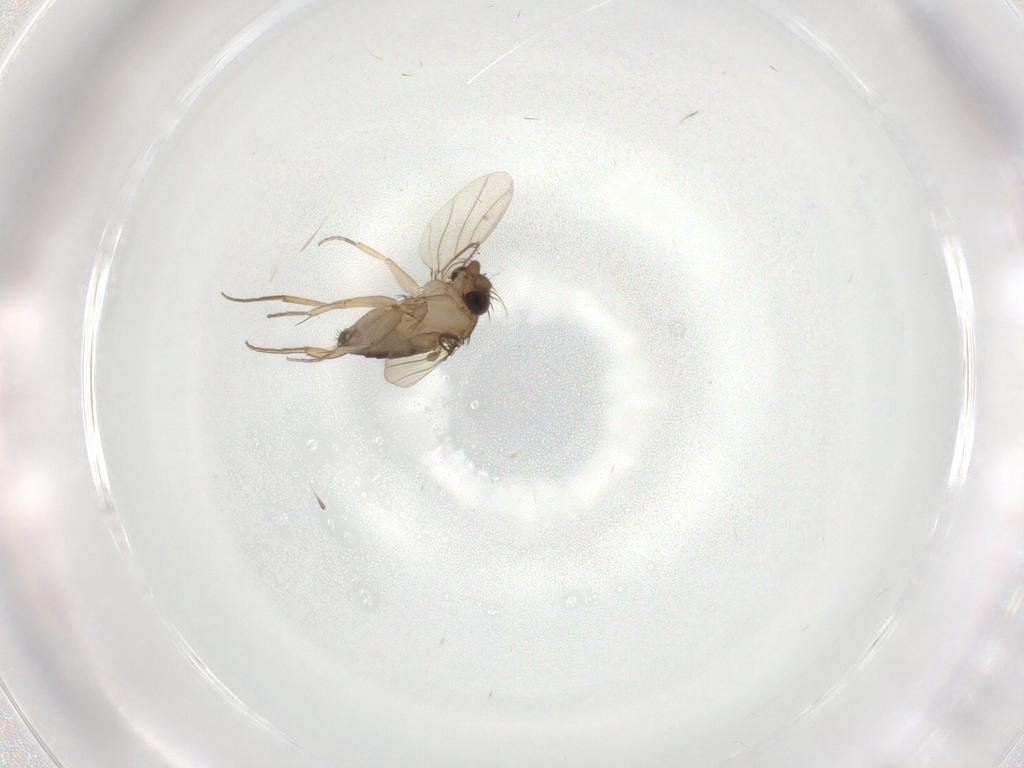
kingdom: Animalia
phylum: Arthropoda
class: Insecta
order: Diptera
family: Phoridae
